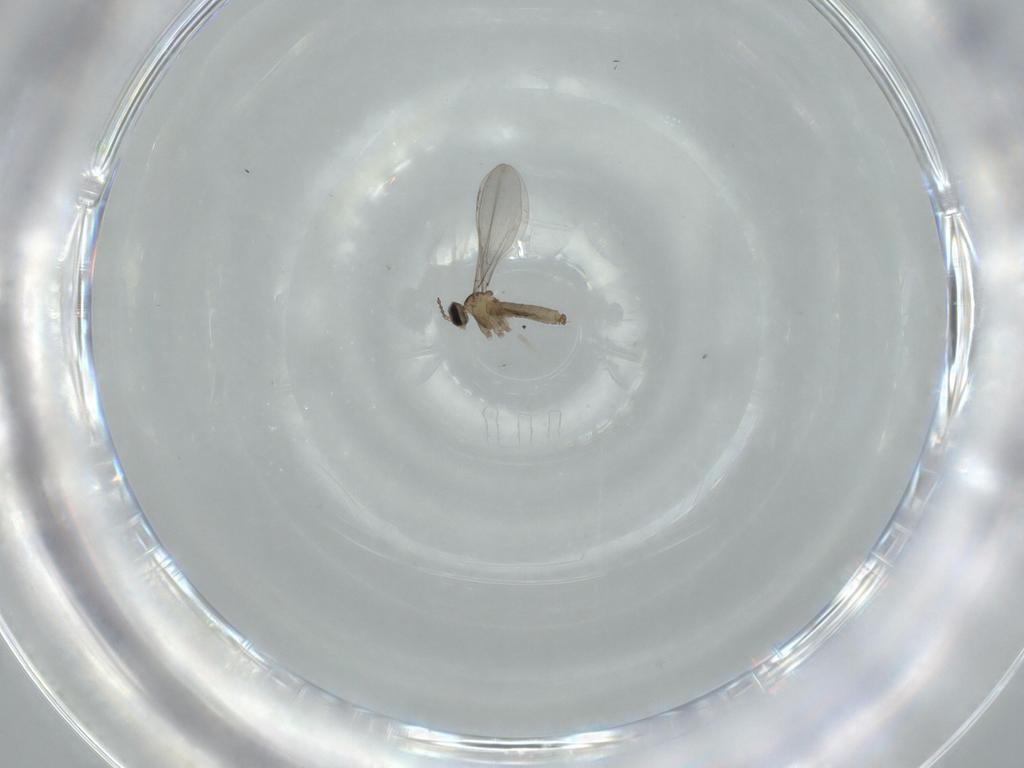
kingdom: Animalia
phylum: Arthropoda
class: Insecta
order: Diptera
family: Cecidomyiidae
